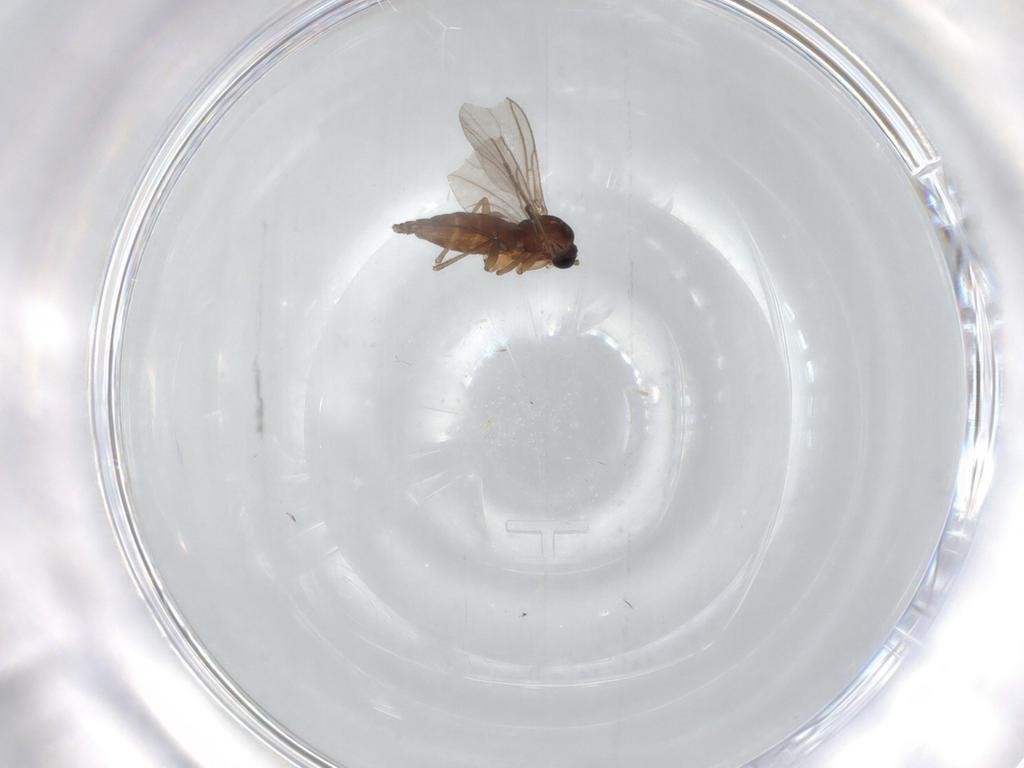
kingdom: Animalia
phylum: Arthropoda
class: Insecta
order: Diptera
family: Sciaridae
